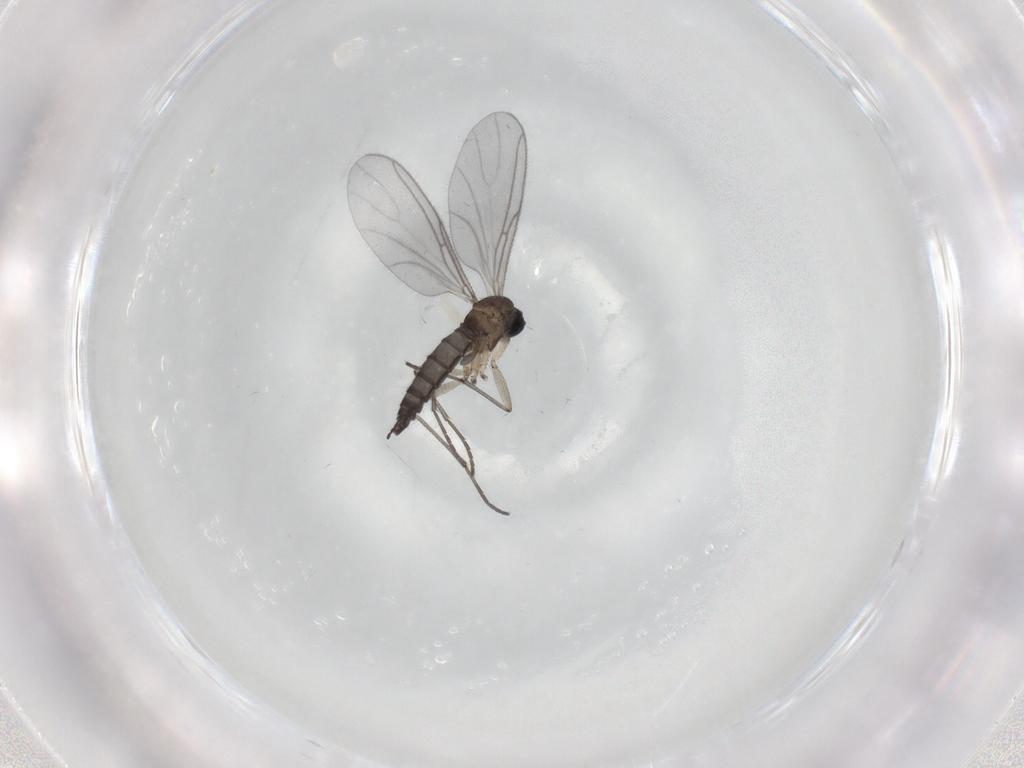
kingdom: Animalia
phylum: Arthropoda
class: Insecta
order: Diptera
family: Sciaridae
